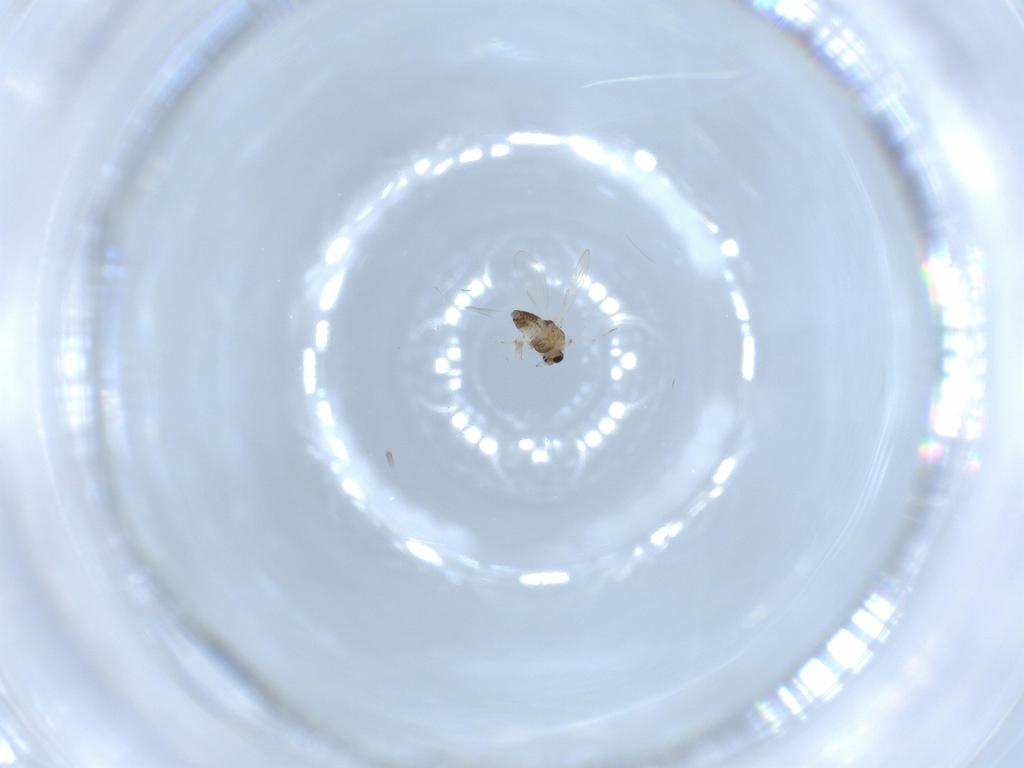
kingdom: Animalia
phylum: Arthropoda
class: Insecta
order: Diptera
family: Chironomidae
